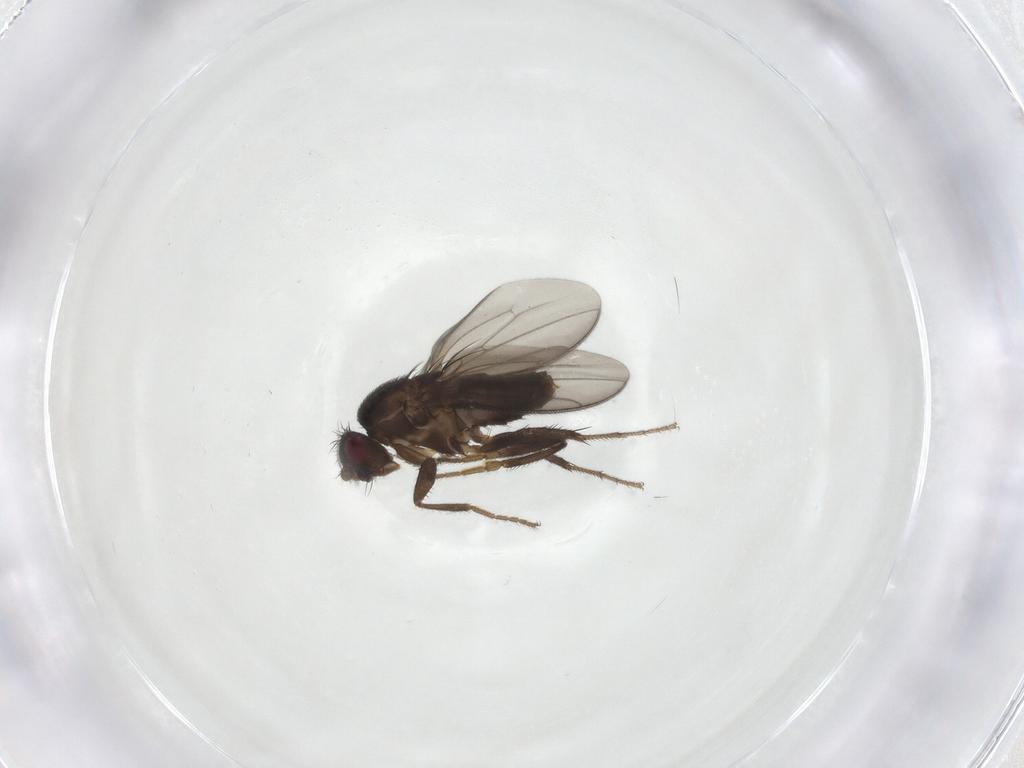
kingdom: Animalia
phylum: Arthropoda
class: Insecta
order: Diptera
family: Sphaeroceridae
